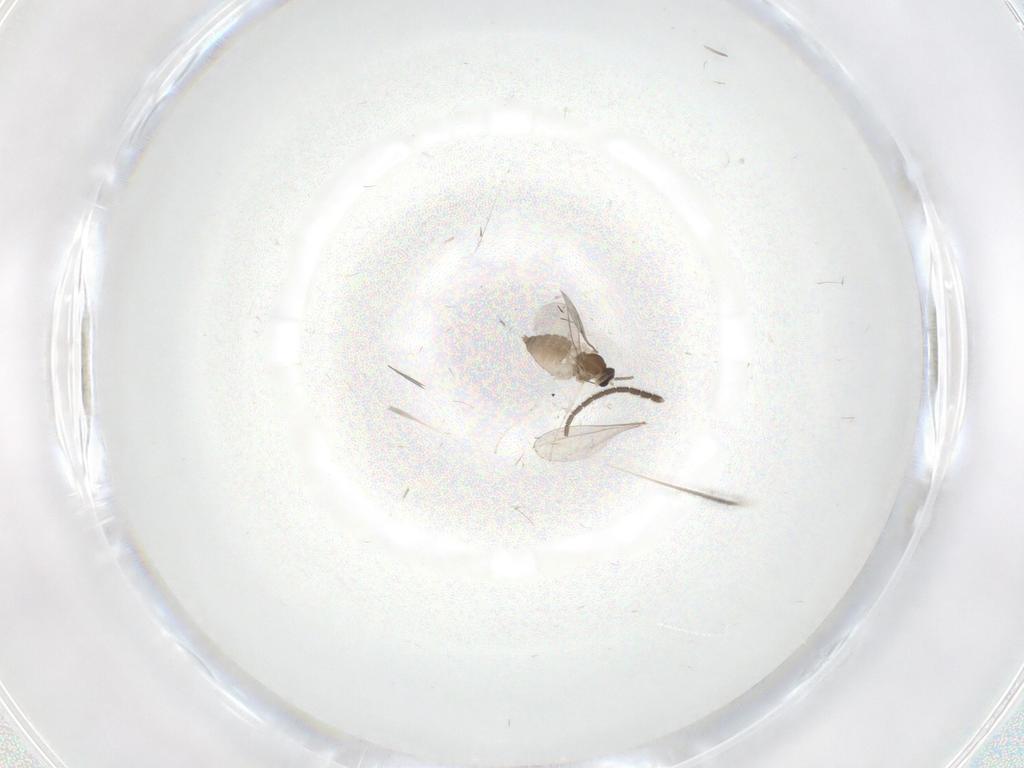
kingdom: Animalia
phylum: Arthropoda
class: Insecta
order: Diptera
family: Cecidomyiidae
